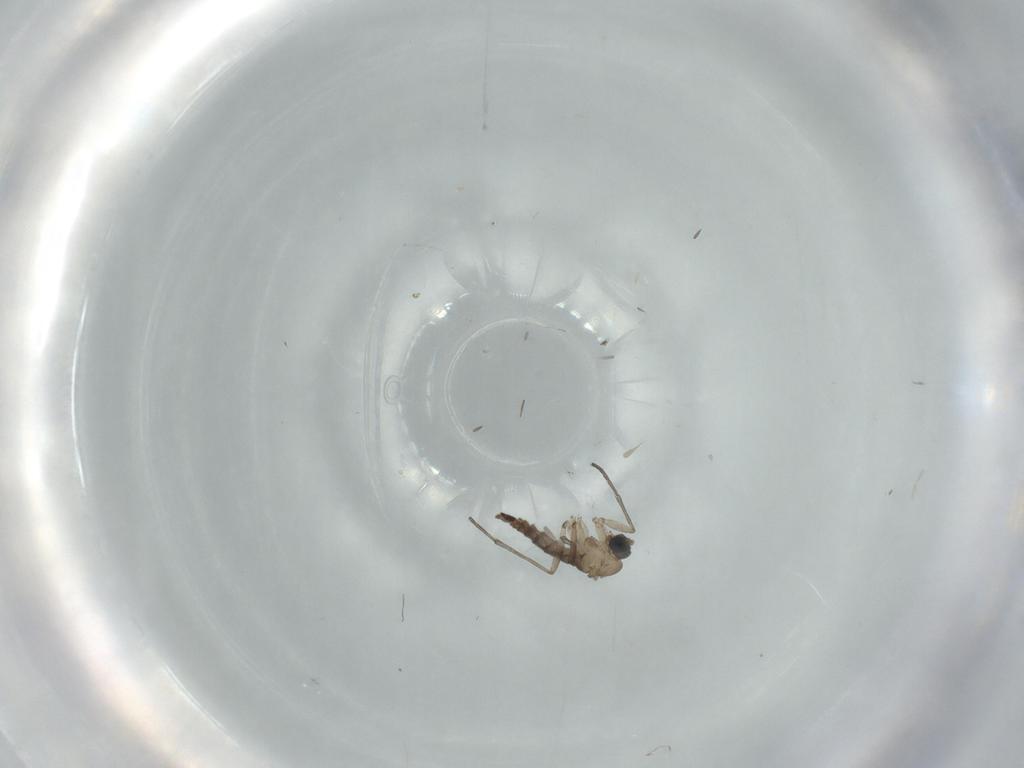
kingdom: Animalia
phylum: Arthropoda
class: Insecta
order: Diptera
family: Sciaridae
